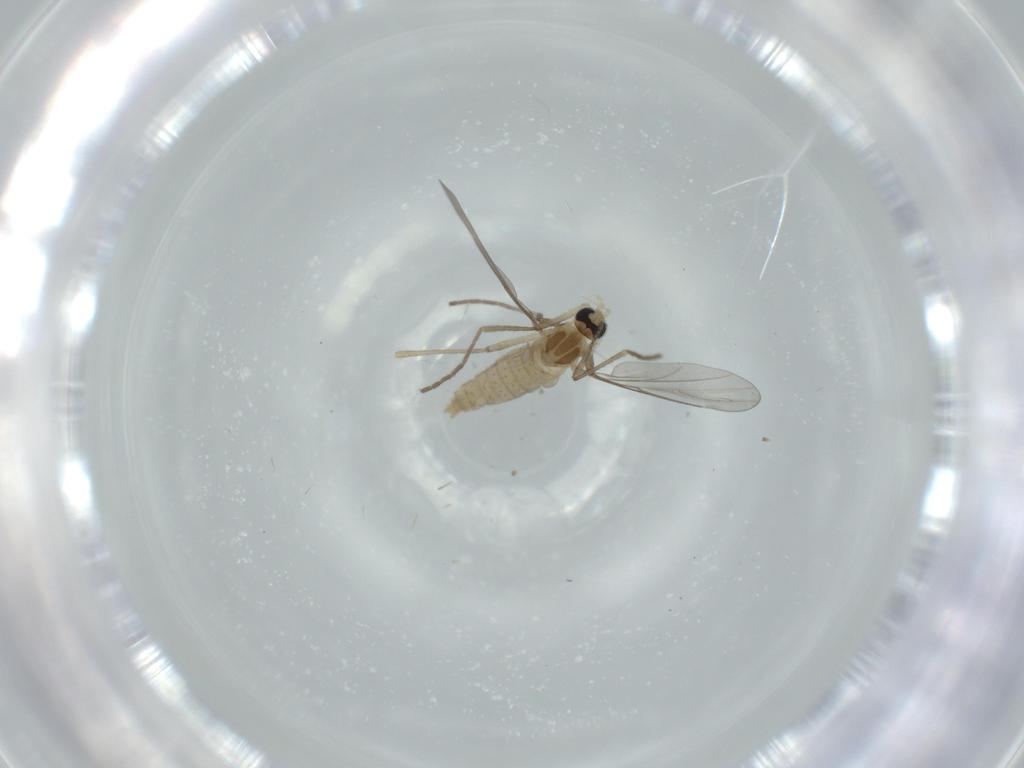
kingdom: Animalia
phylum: Arthropoda
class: Insecta
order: Diptera
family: Cecidomyiidae
